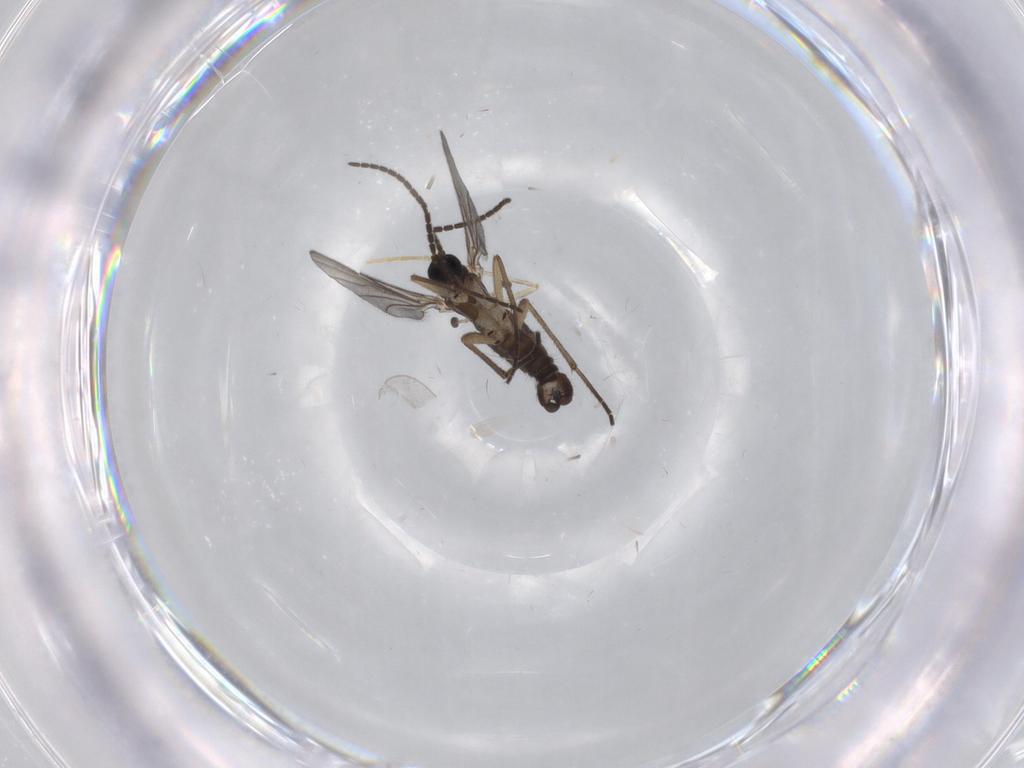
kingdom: Animalia
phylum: Arthropoda
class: Insecta
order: Diptera
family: Sciaridae
